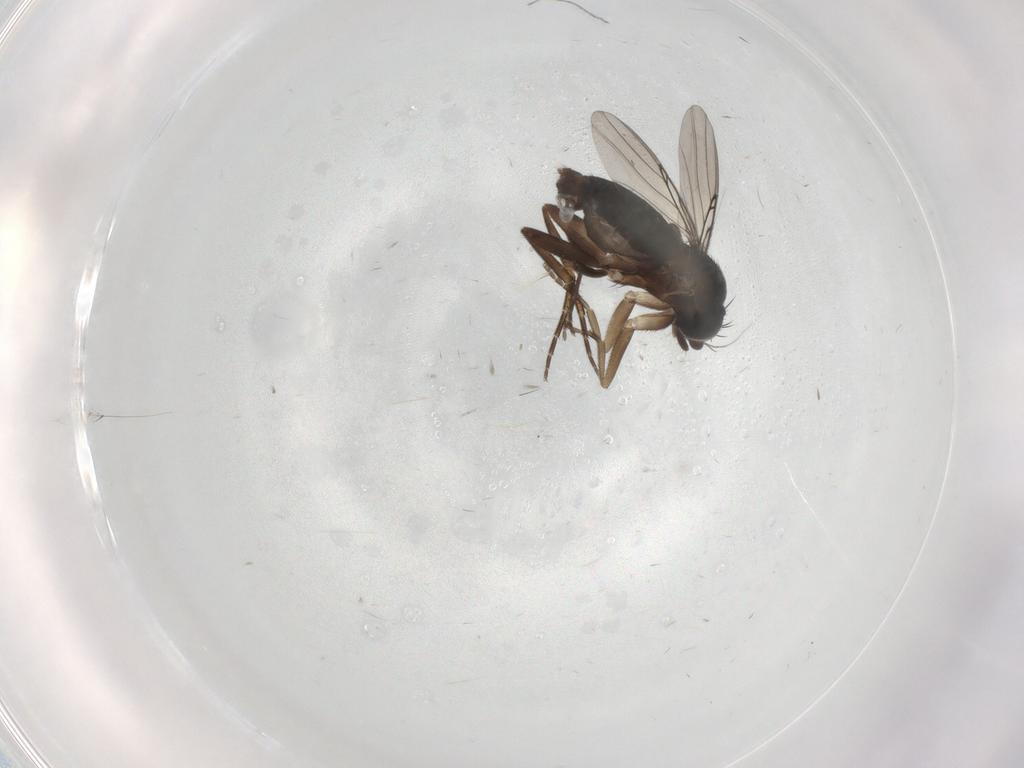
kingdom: Animalia
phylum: Arthropoda
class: Insecta
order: Diptera
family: Phoridae
